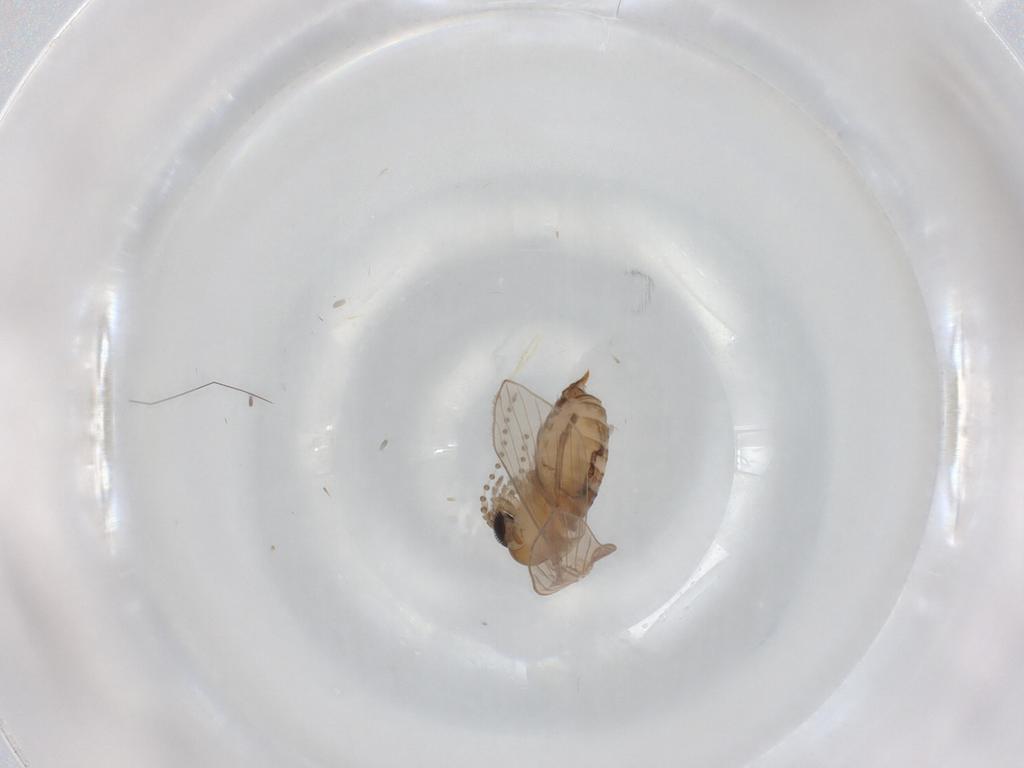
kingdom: Animalia
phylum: Arthropoda
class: Insecta
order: Diptera
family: Psychodidae
